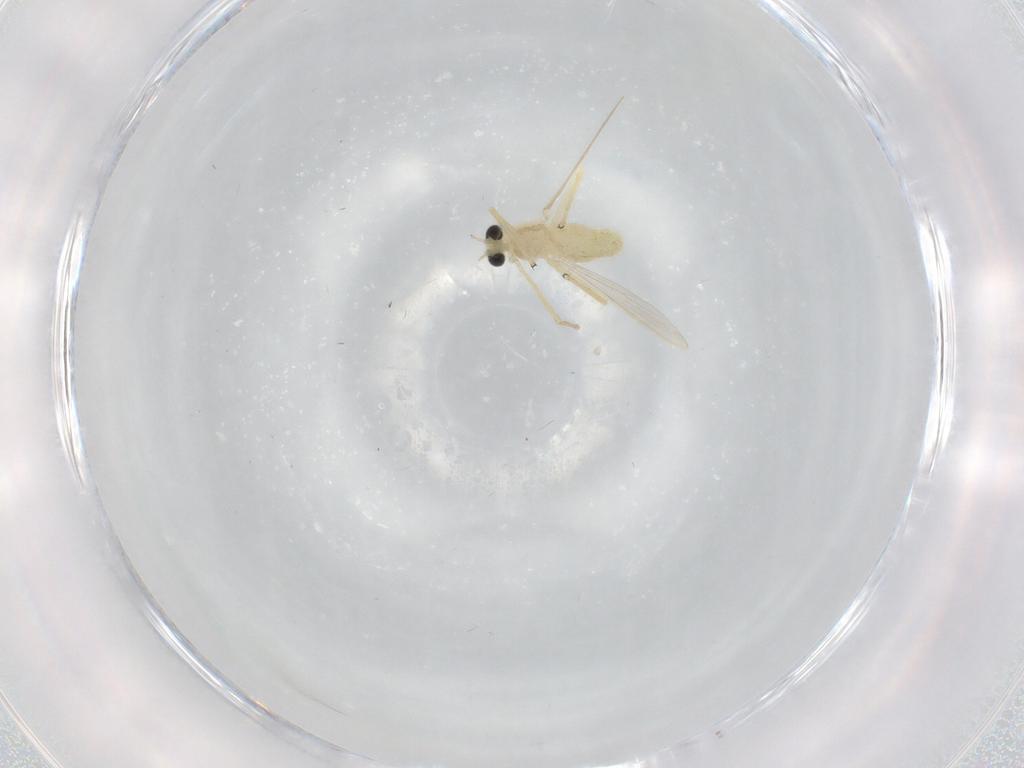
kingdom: Animalia
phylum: Arthropoda
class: Insecta
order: Diptera
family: Chironomidae
